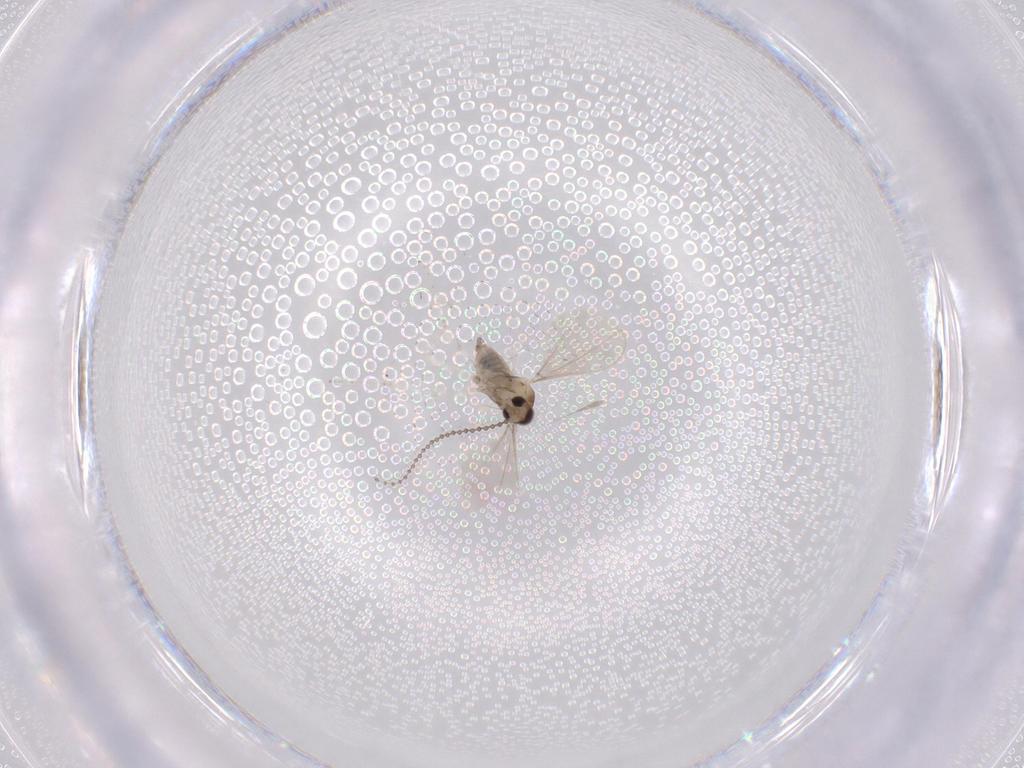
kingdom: Animalia
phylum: Arthropoda
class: Insecta
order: Diptera
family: Cecidomyiidae
